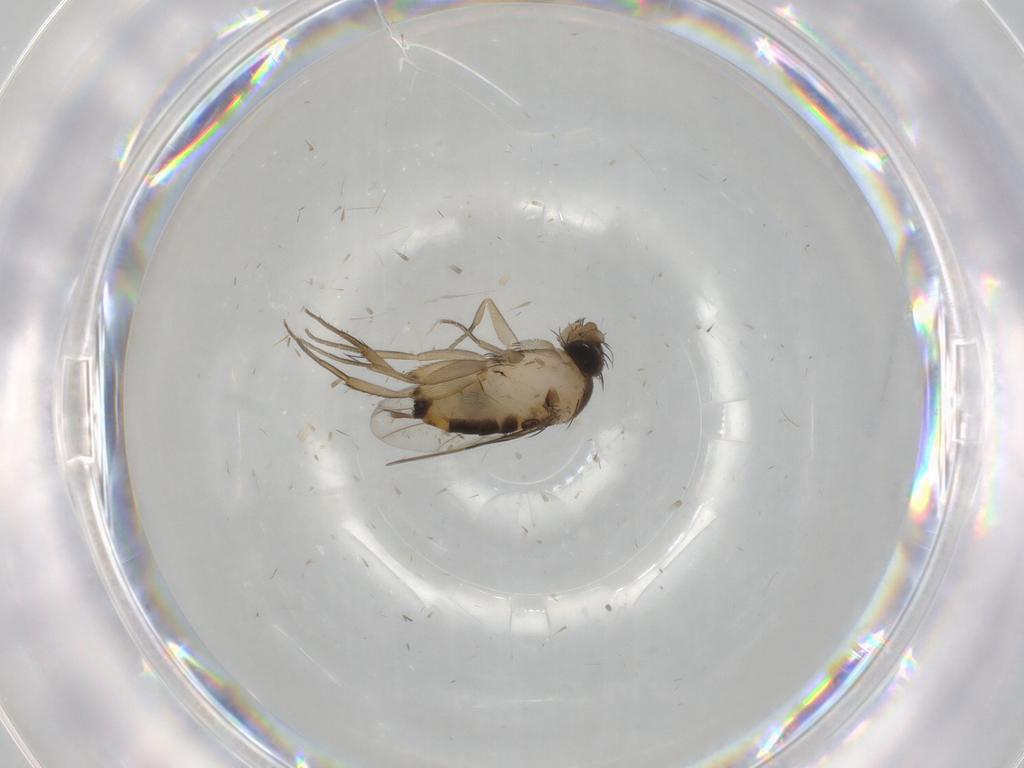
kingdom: Animalia
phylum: Arthropoda
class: Insecta
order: Diptera
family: Phoridae
